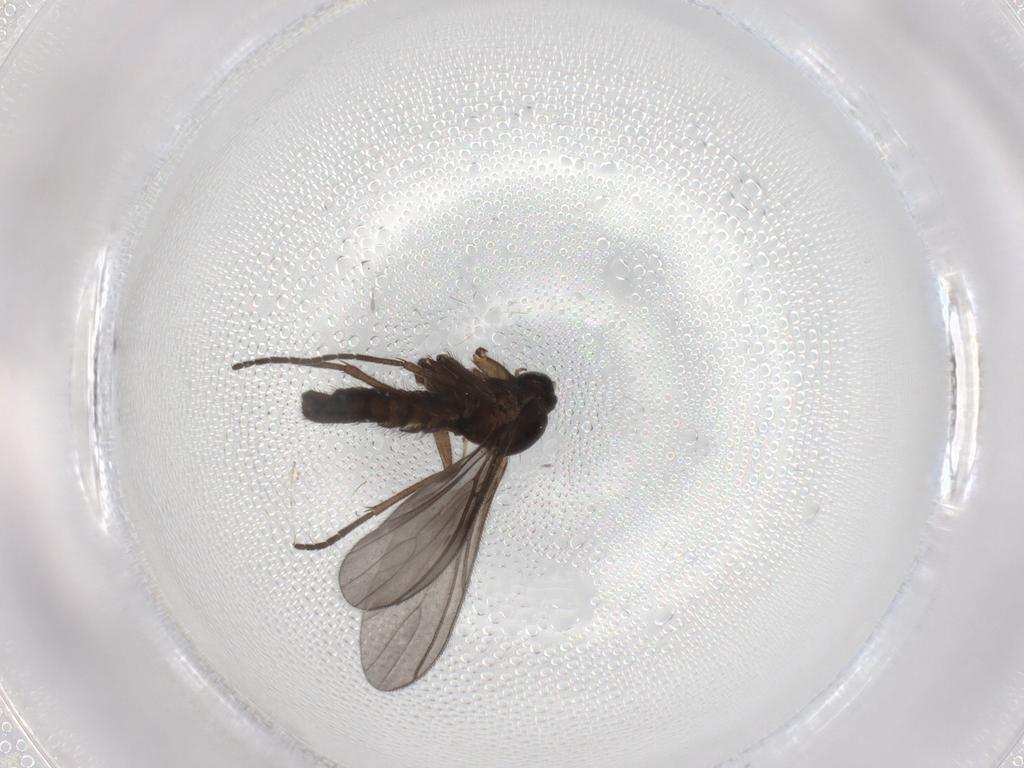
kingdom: Animalia
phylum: Arthropoda
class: Insecta
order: Diptera
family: Sciaridae
